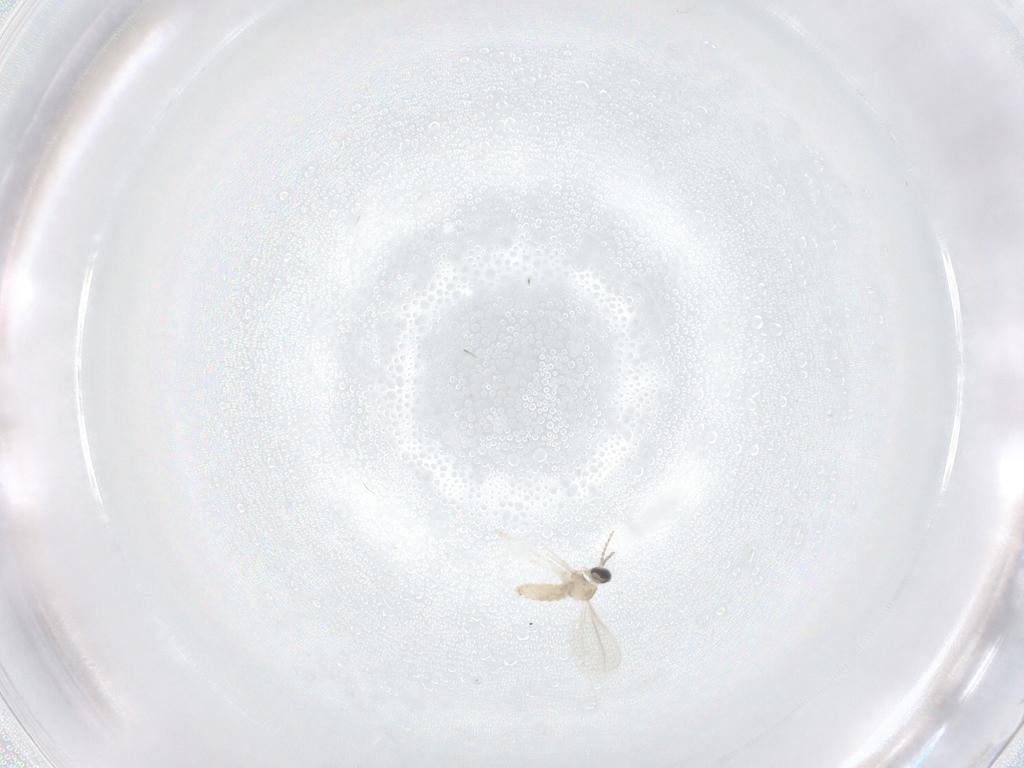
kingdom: Animalia
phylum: Arthropoda
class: Insecta
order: Diptera
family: Cecidomyiidae
